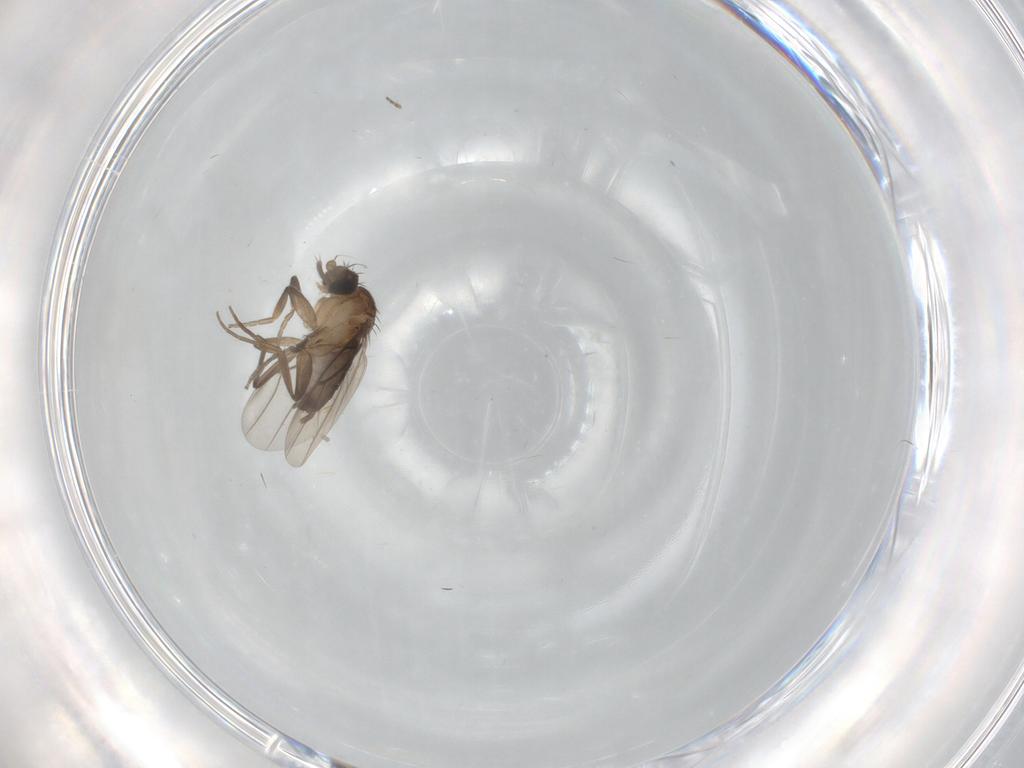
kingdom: Animalia
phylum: Arthropoda
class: Insecta
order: Diptera
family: Ceratopogonidae
